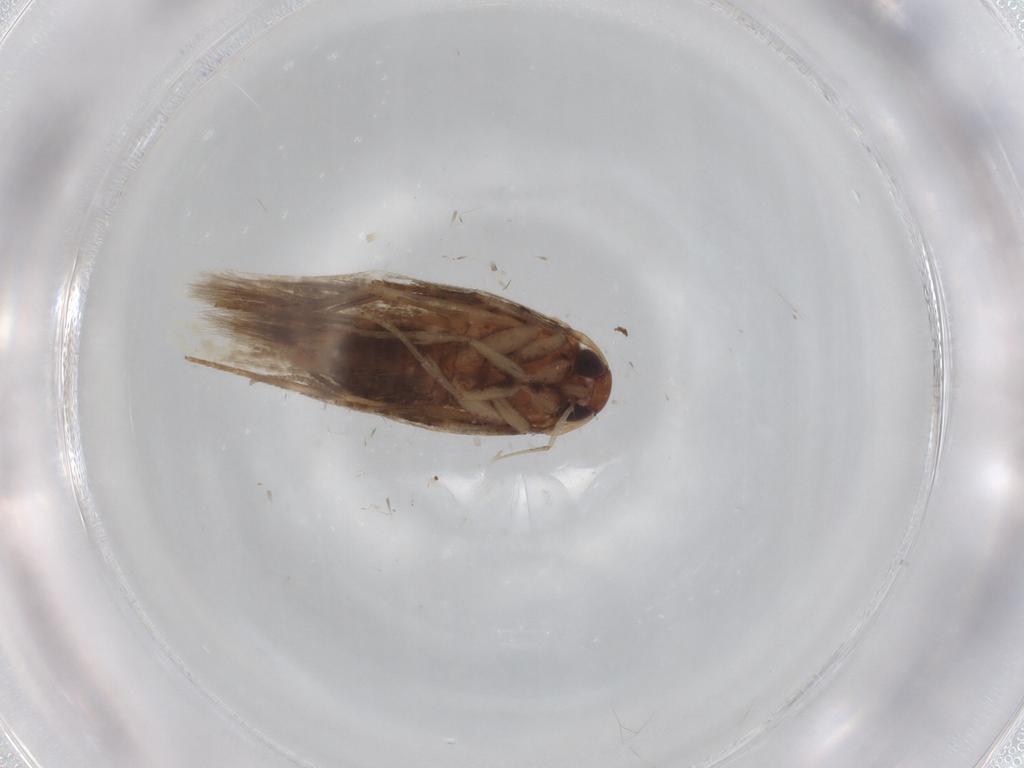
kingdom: Animalia
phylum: Arthropoda
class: Insecta
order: Lepidoptera
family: Cosmopterigidae
